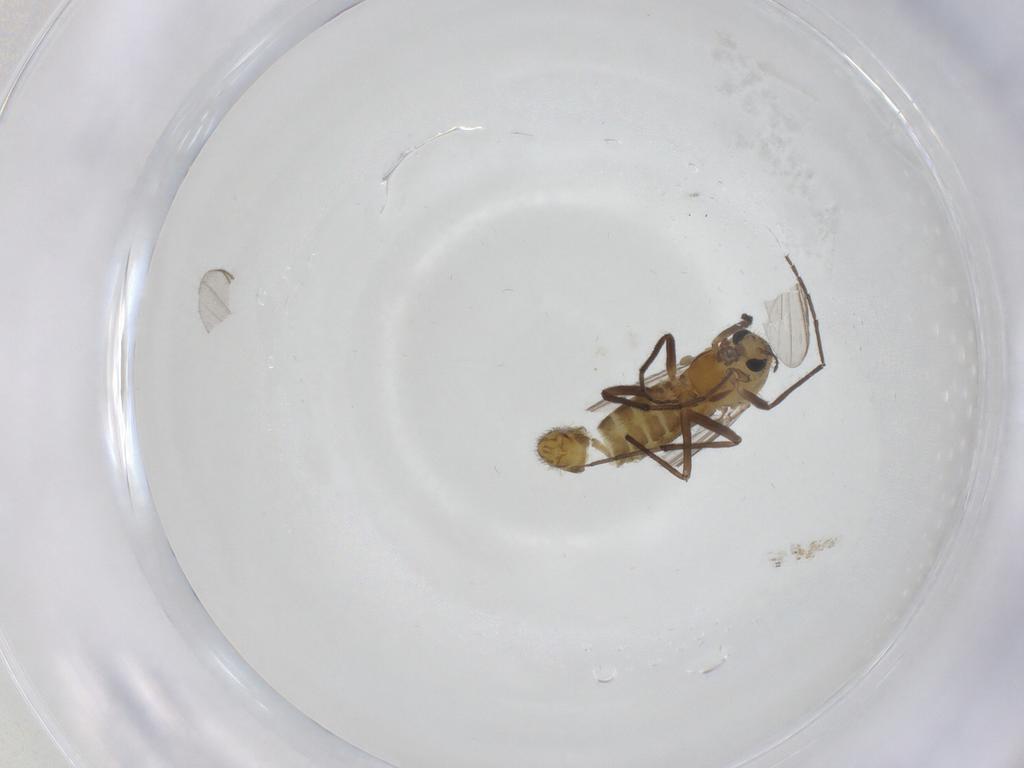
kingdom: Animalia
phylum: Arthropoda
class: Insecta
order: Diptera
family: Chironomidae
